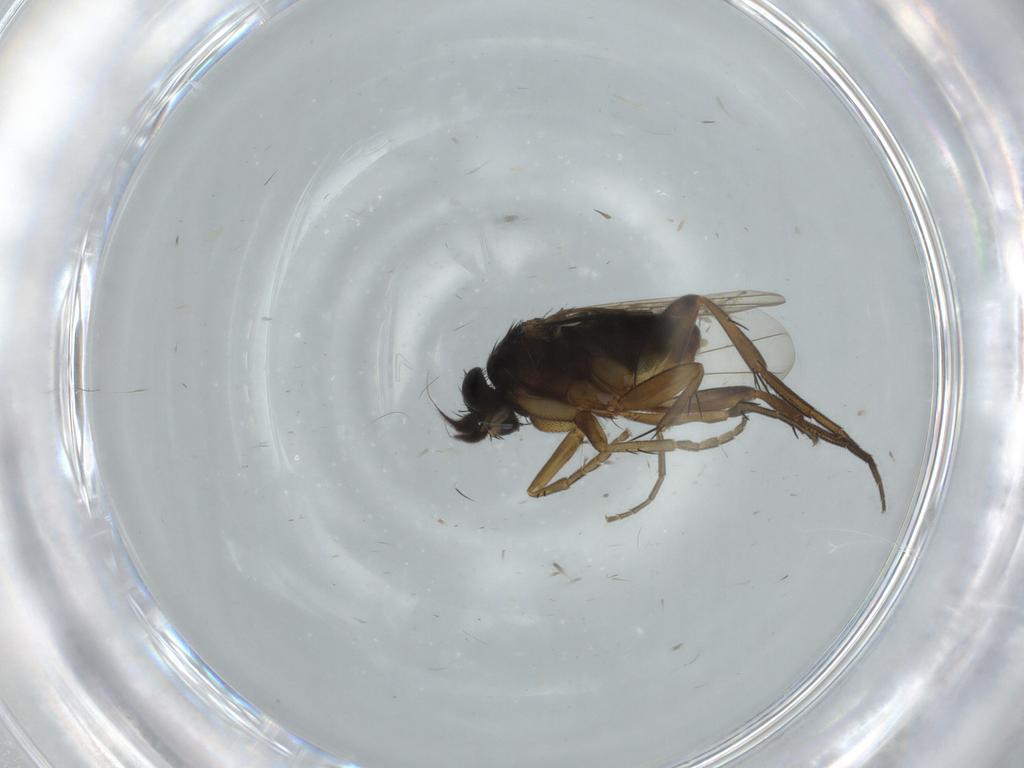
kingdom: Animalia
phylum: Arthropoda
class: Insecta
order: Diptera
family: Phoridae
